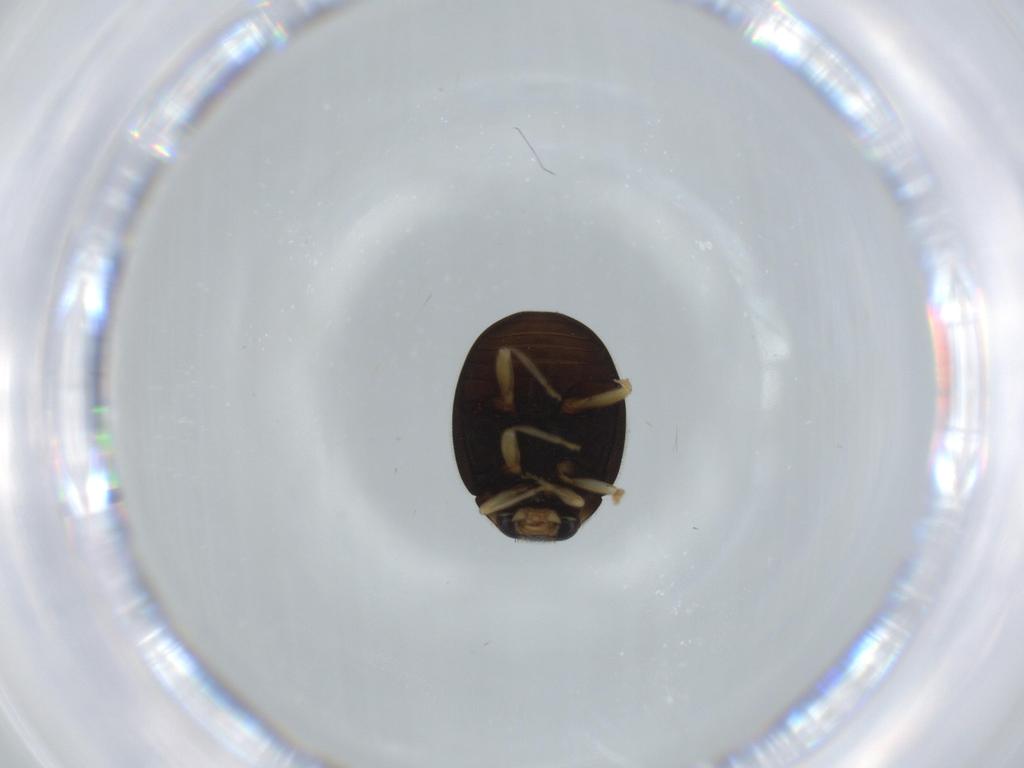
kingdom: Animalia
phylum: Arthropoda
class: Insecta
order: Coleoptera
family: Coccinellidae
